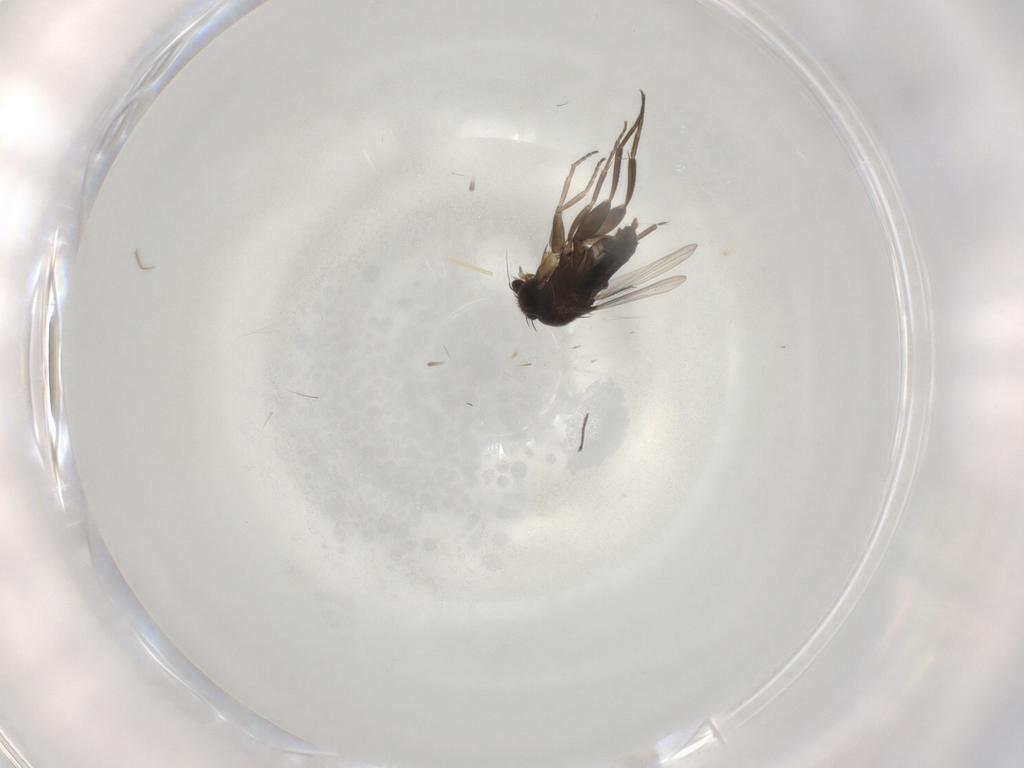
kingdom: Animalia
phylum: Arthropoda
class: Insecta
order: Diptera
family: Phoridae
